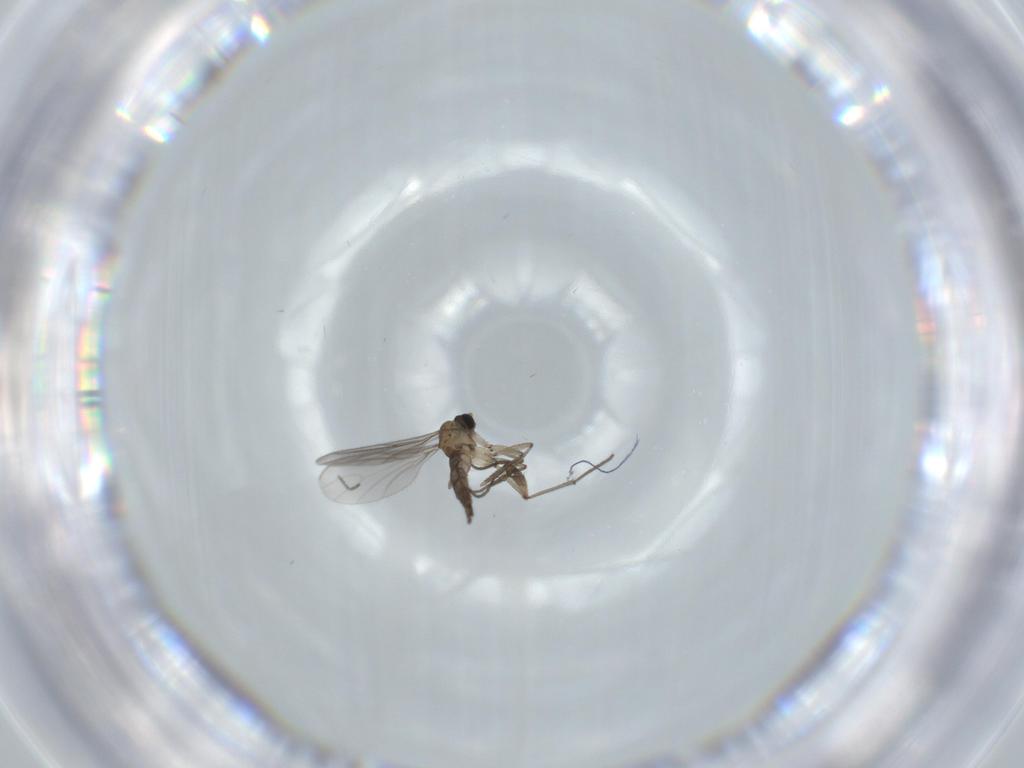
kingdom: Animalia
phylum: Arthropoda
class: Insecta
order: Diptera
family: Sciaridae
